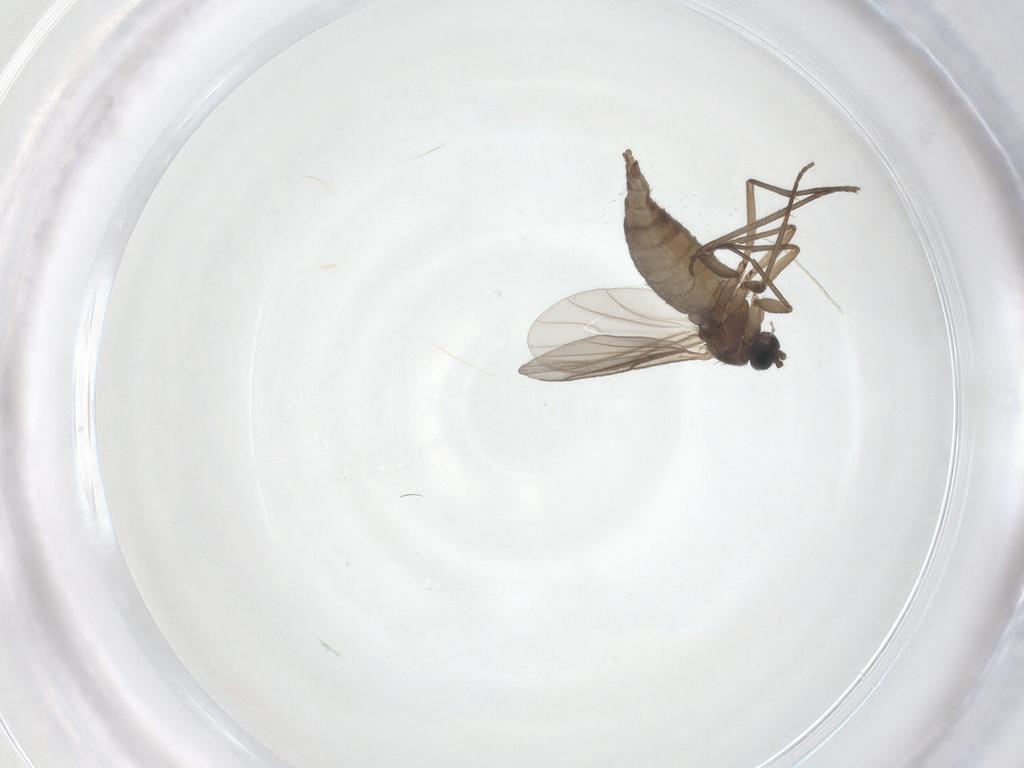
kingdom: Animalia
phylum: Arthropoda
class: Insecta
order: Diptera
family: Sciaridae
